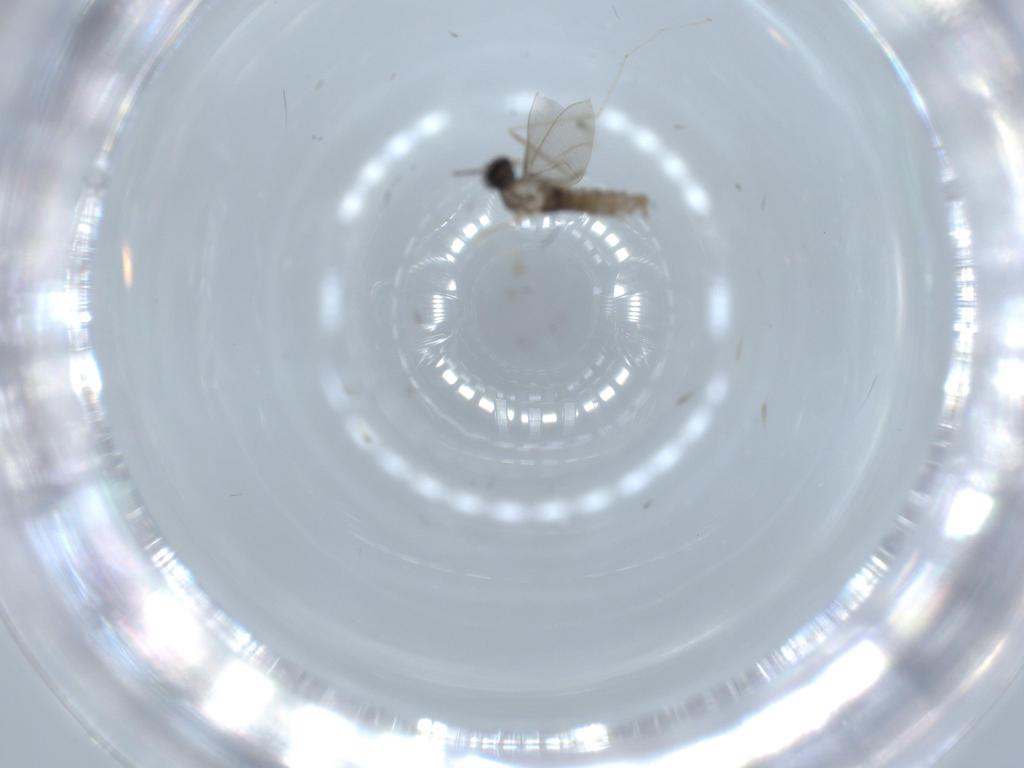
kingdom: Animalia
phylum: Arthropoda
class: Insecta
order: Diptera
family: Cecidomyiidae
